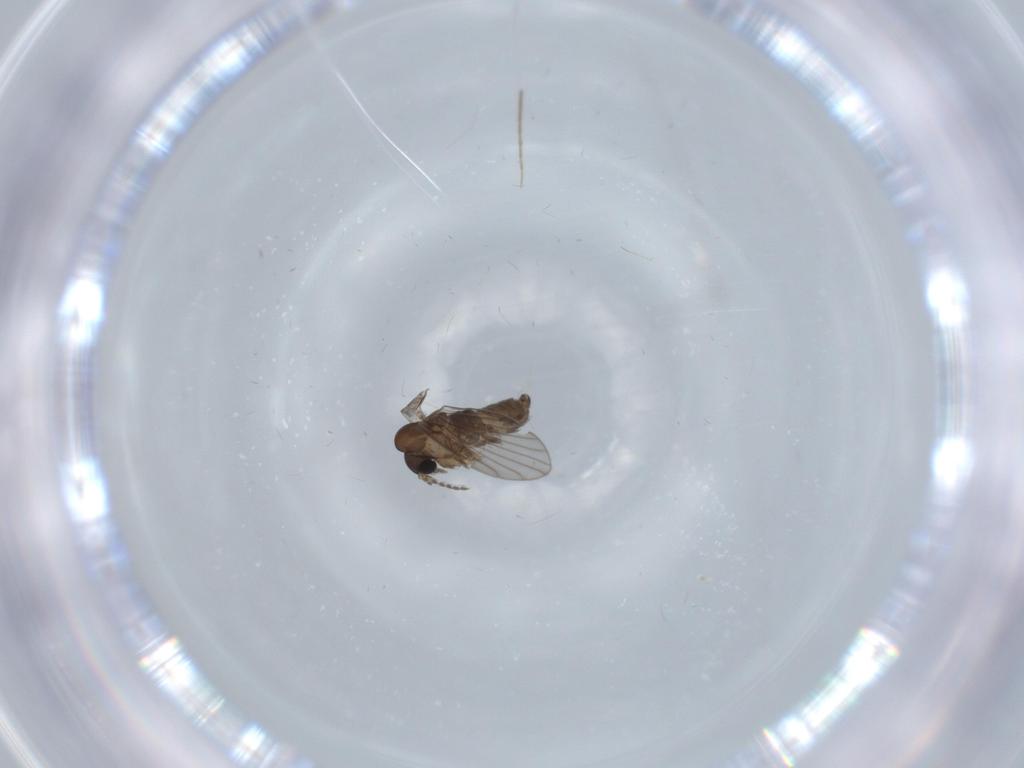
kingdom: Animalia
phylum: Arthropoda
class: Insecta
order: Diptera
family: Psychodidae
